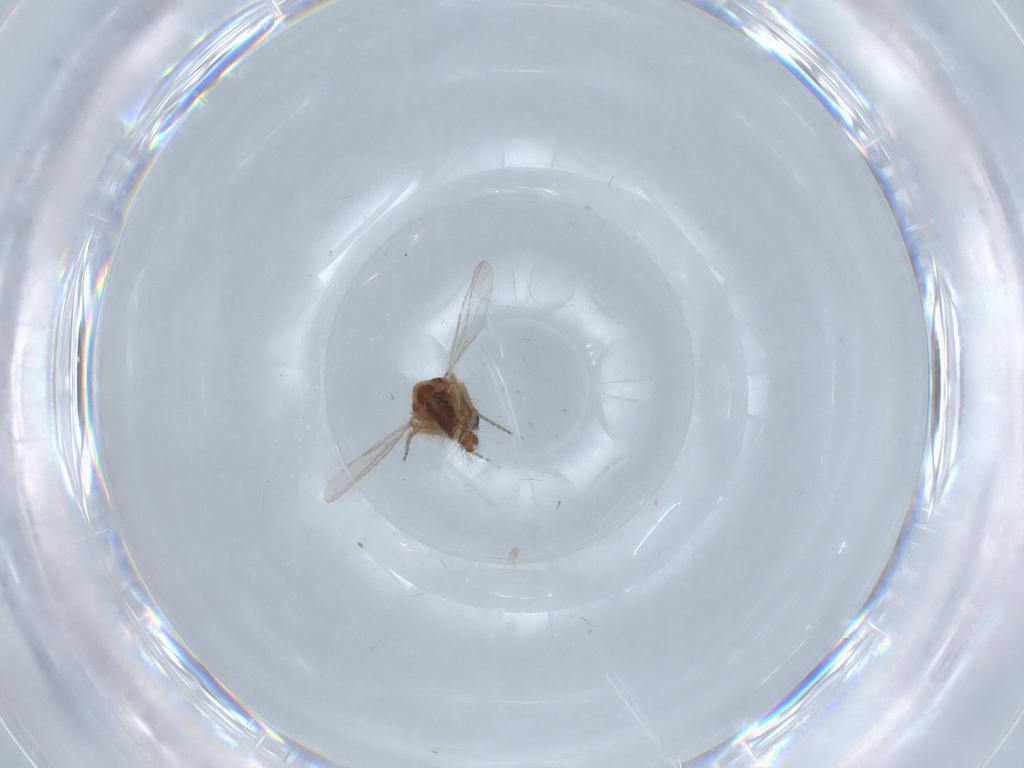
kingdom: Animalia
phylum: Arthropoda
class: Insecta
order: Diptera
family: Ceratopogonidae
